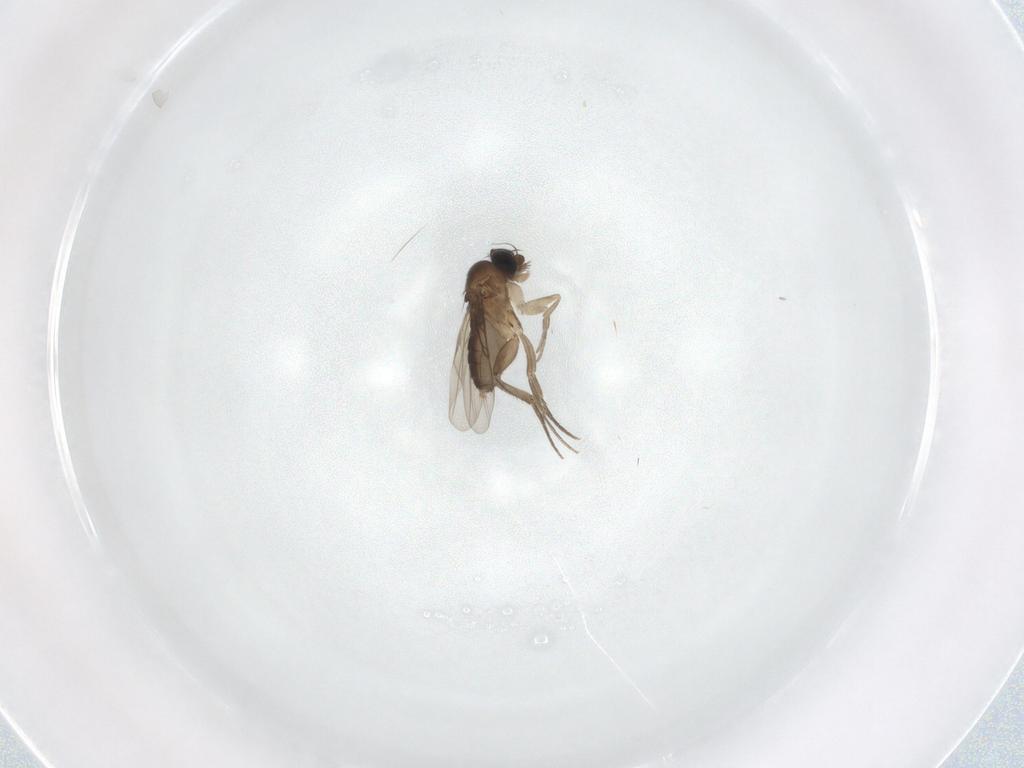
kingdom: Animalia
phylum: Arthropoda
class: Insecta
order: Diptera
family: Phoridae
